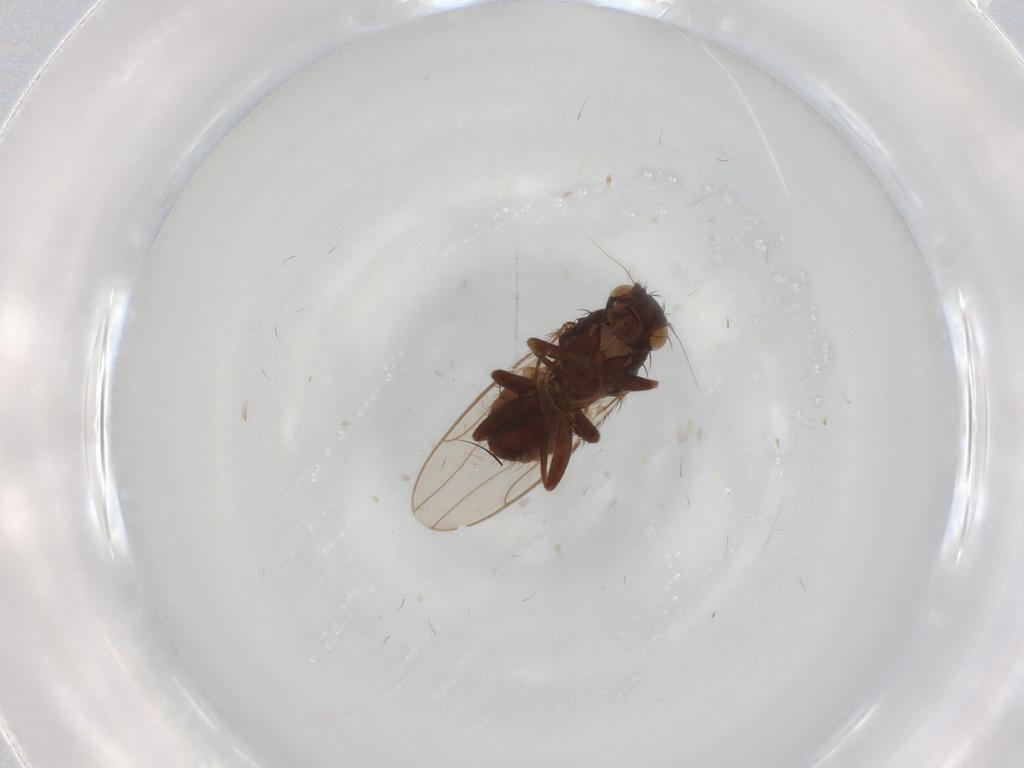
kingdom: Animalia
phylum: Arthropoda
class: Insecta
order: Diptera
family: Sphaeroceridae
